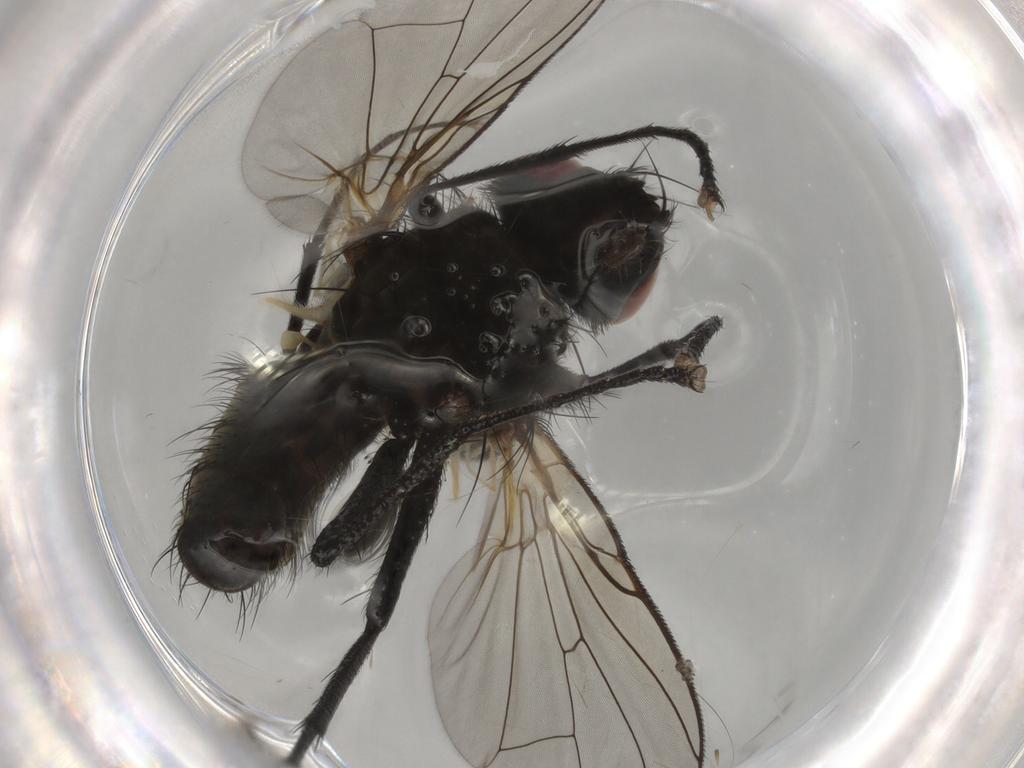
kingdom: Animalia
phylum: Arthropoda
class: Insecta
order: Diptera
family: Muscidae
